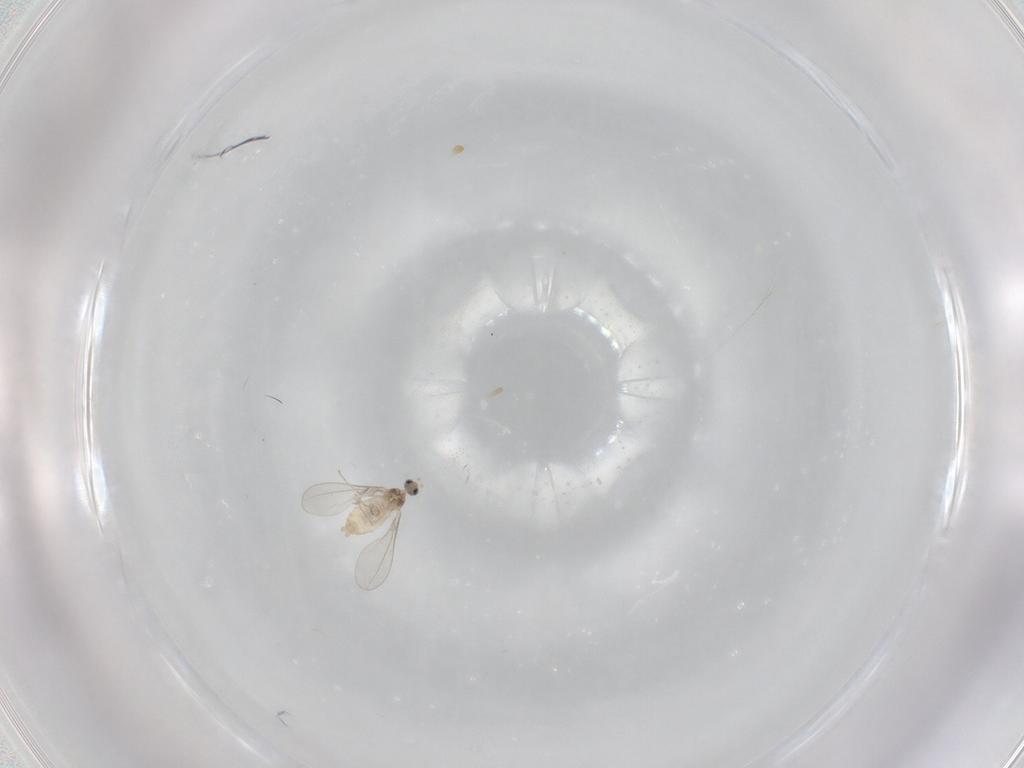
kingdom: Animalia
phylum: Arthropoda
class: Insecta
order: Diptera
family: Cecidomyiidae
